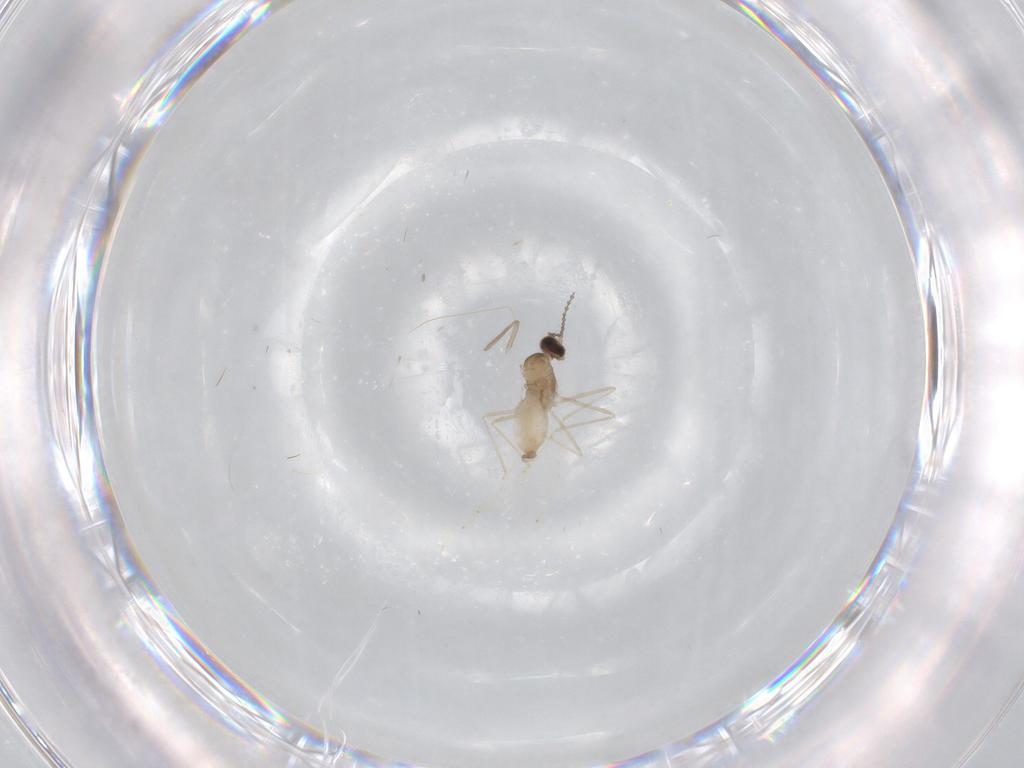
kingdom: Animalia
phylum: Arthropoda
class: Insecta
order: Diptera
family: Cecidomyiidae
